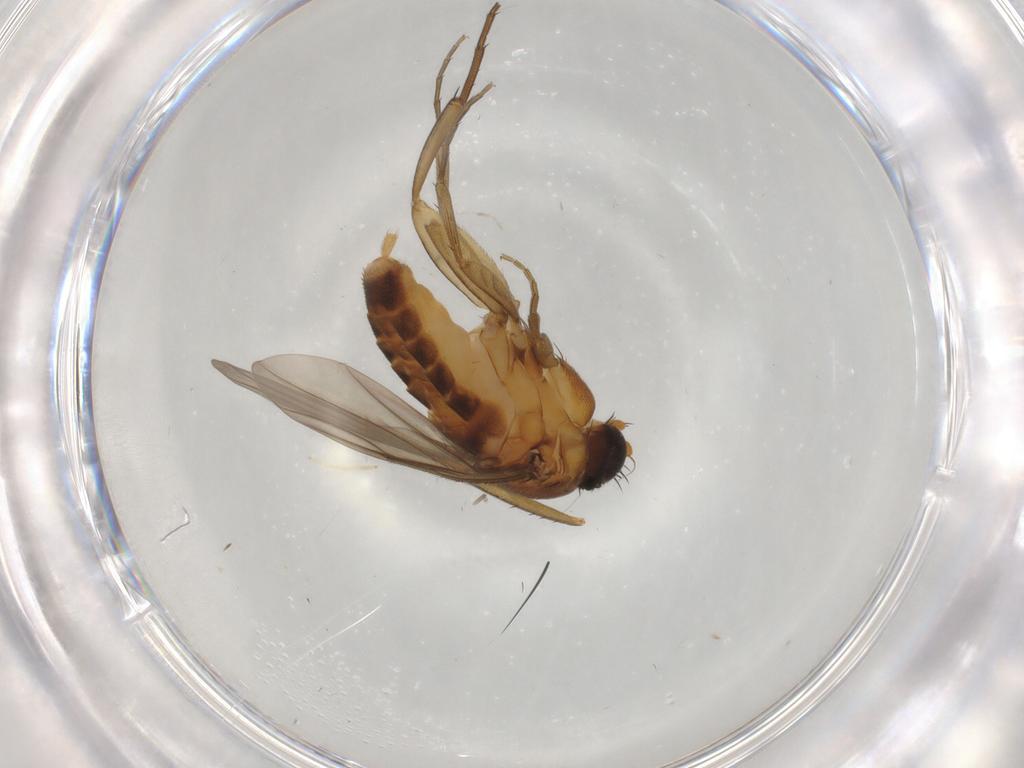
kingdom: Animalia
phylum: Arthropoda
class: Insecta
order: Diptera
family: Phoridae
